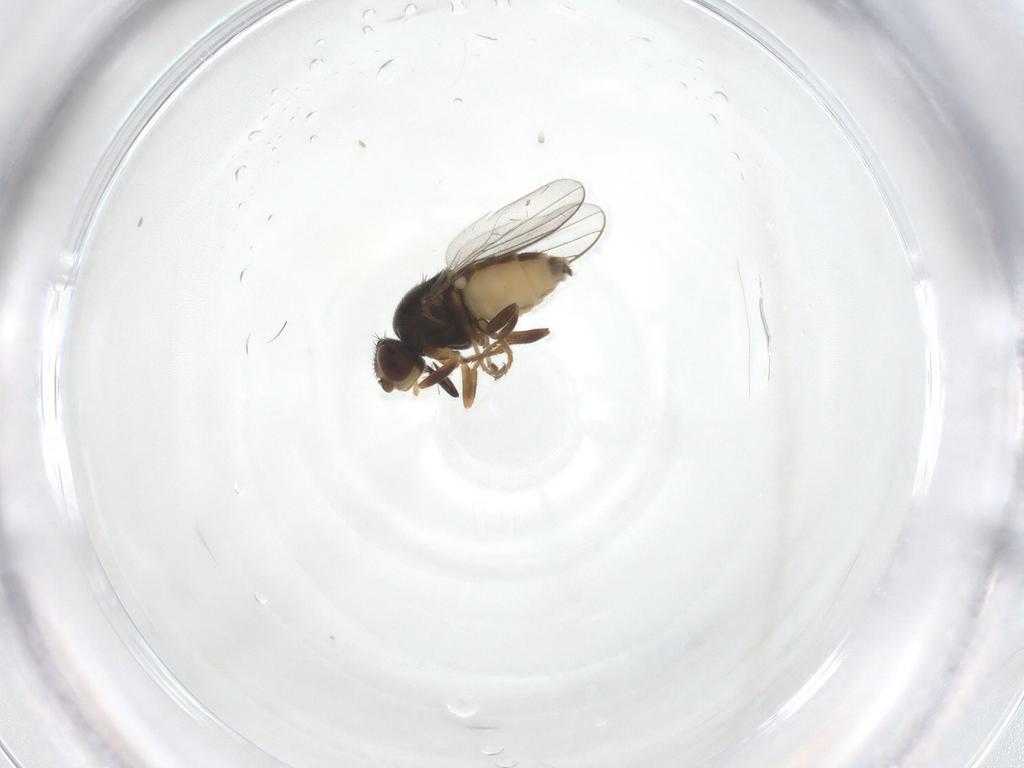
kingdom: Animalia
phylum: Arthropoda
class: Insecta
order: Diptera
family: Chloropidae
